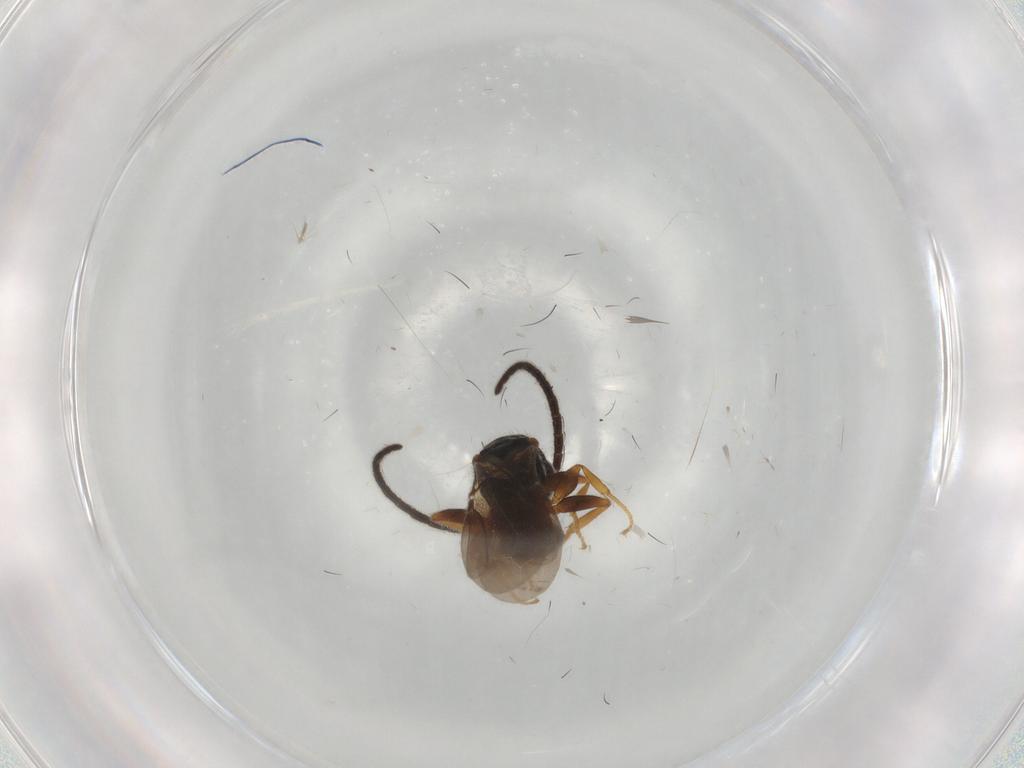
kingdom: Animalia
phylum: Arthropoda
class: Insecta
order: Hymenoptera
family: Bethylidae
